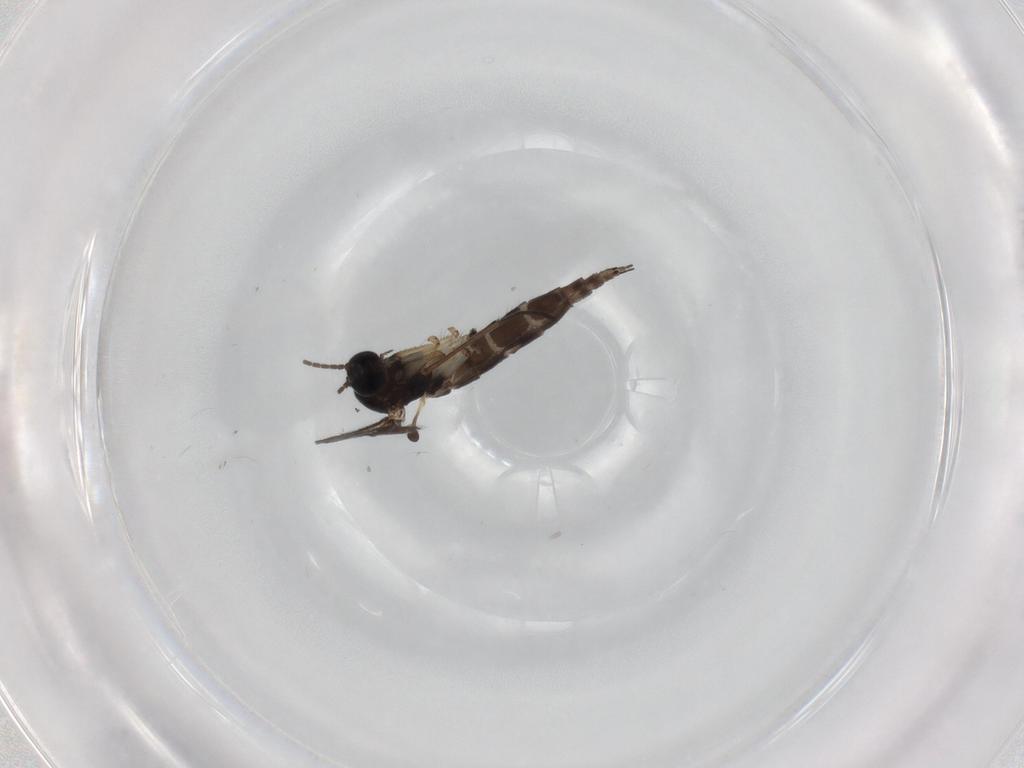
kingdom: Animalia
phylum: Arthropoda
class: Insecta
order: Diptera
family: Sciaridae
